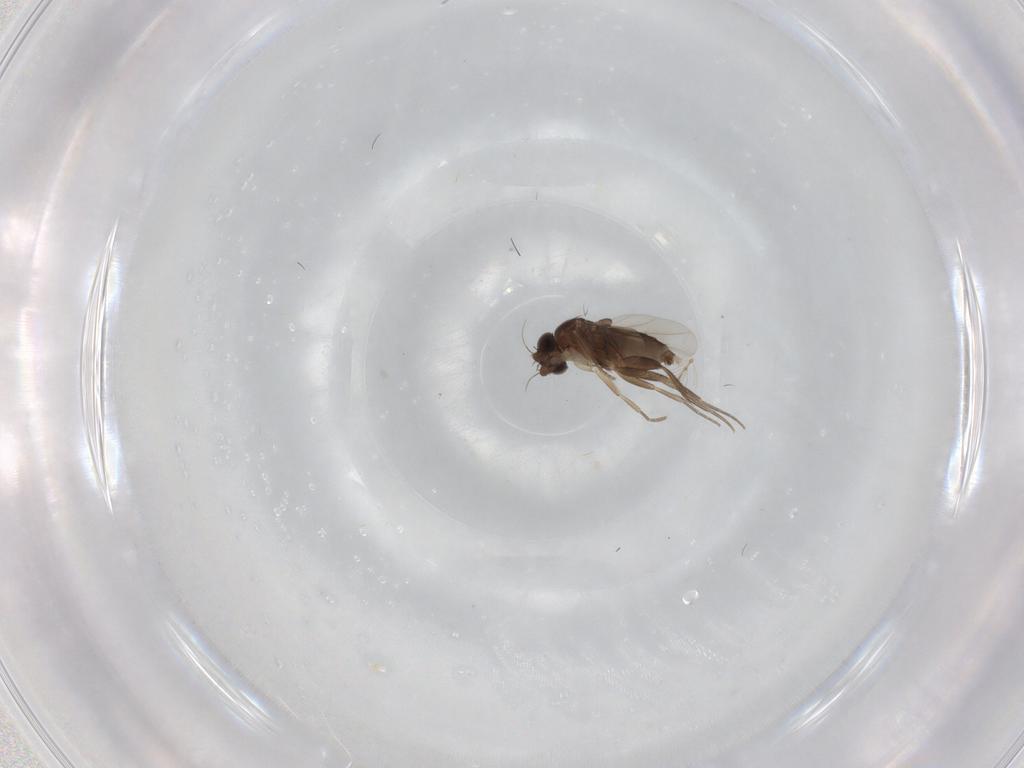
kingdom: Animalia
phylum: Arthropoda
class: Insecta
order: Diptera
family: Phoridae
